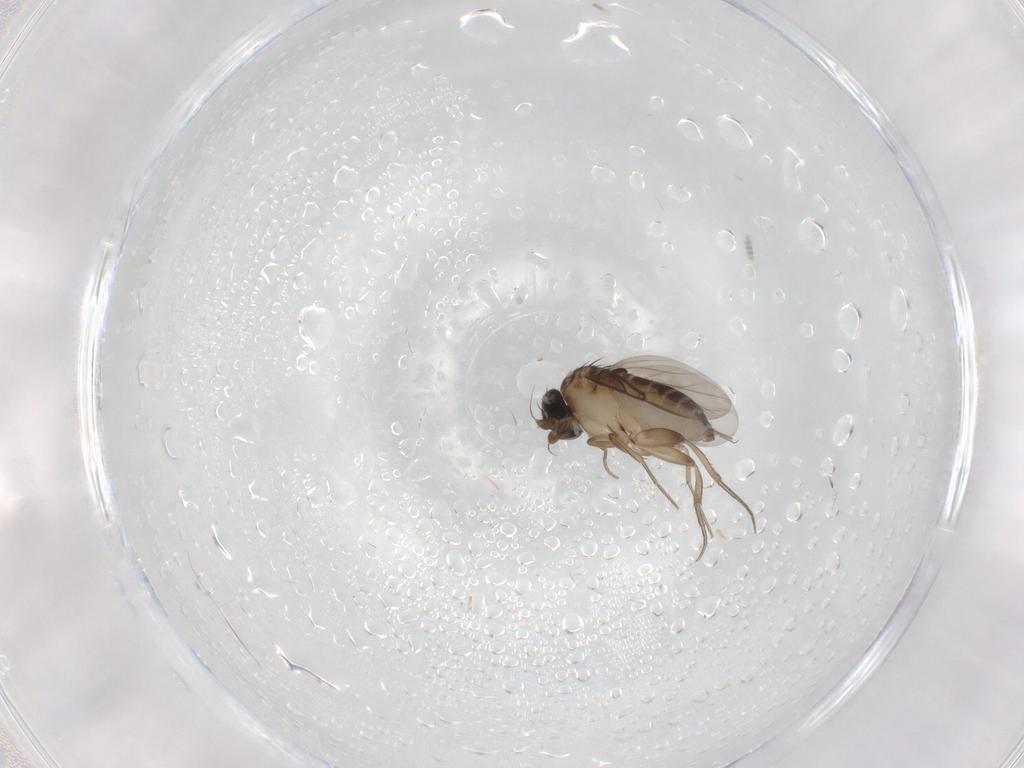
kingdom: Animalia
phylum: Arthropoda
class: Insecta
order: Diptera
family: Phoridae
